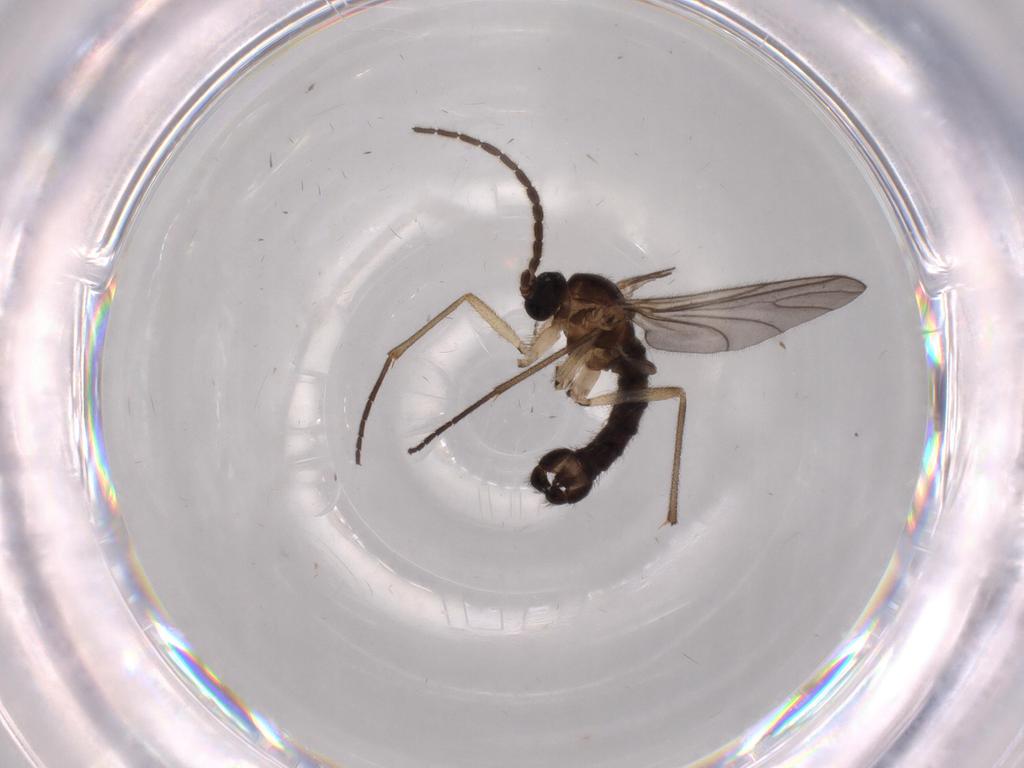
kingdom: Animalia
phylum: Arthropoda
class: Insecta
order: Diptera
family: Sciaridae
